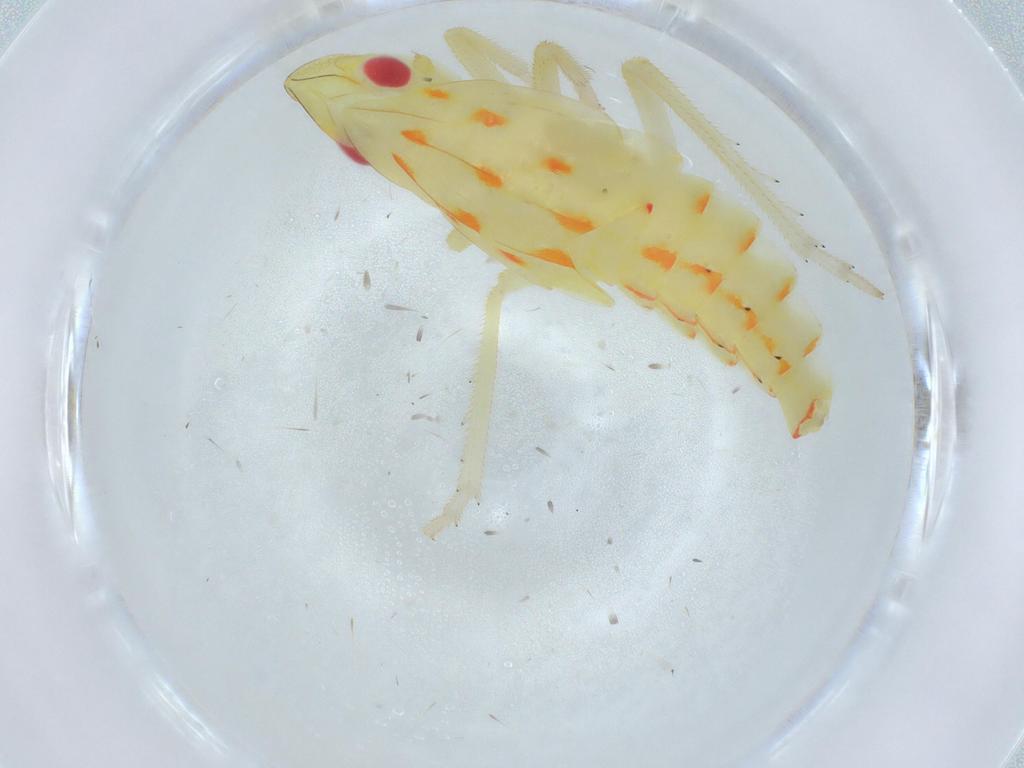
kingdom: Animalia
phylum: Arthropoda
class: Insecta
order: Hemiptera
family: Tropiduchidae
